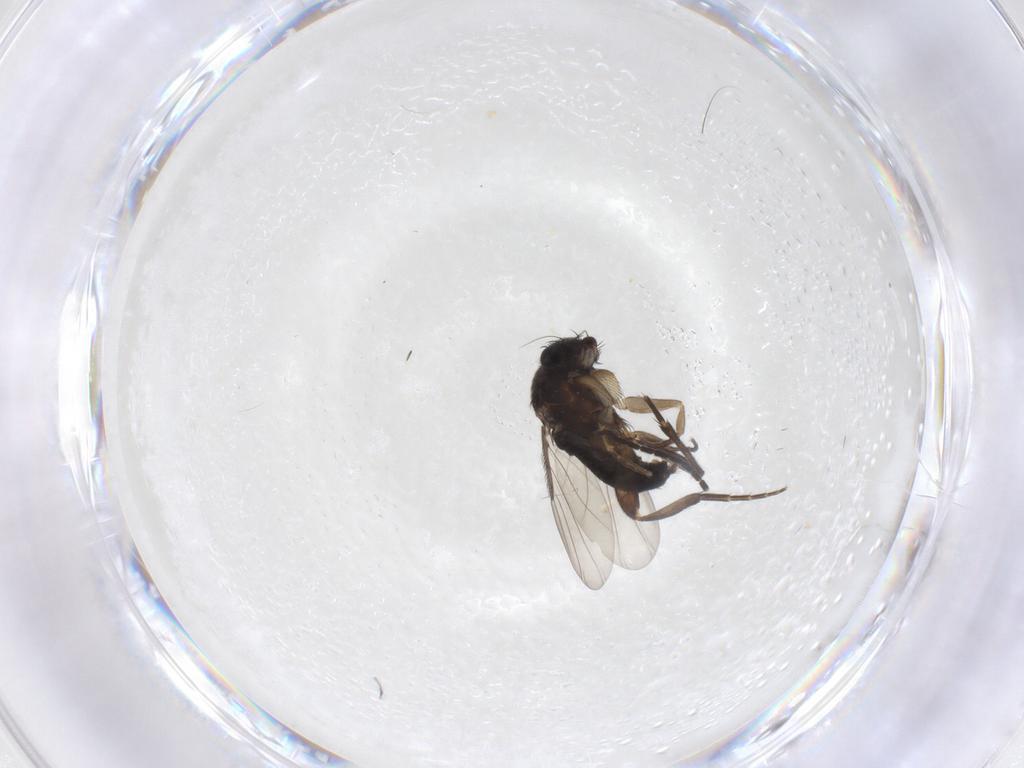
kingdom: Animalia
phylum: Arthropoda
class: Insecta
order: Diptera
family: Phoridae
